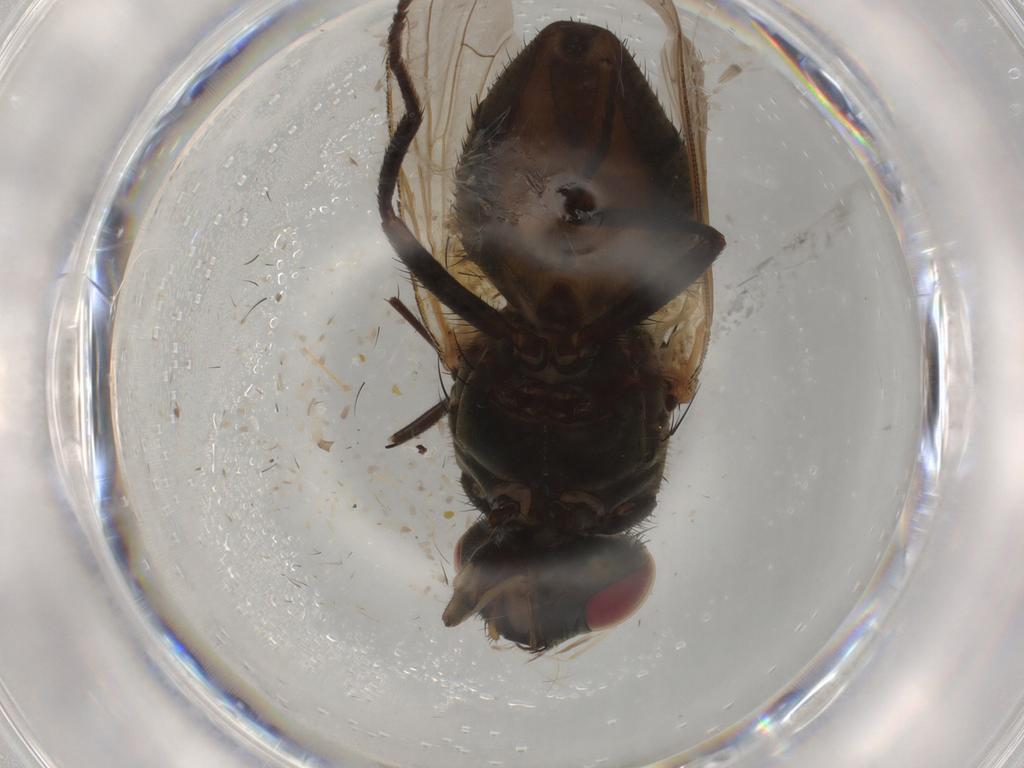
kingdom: Animalia
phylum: Arthropoda
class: Insecta
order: Diptera
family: Dolichopodidae
